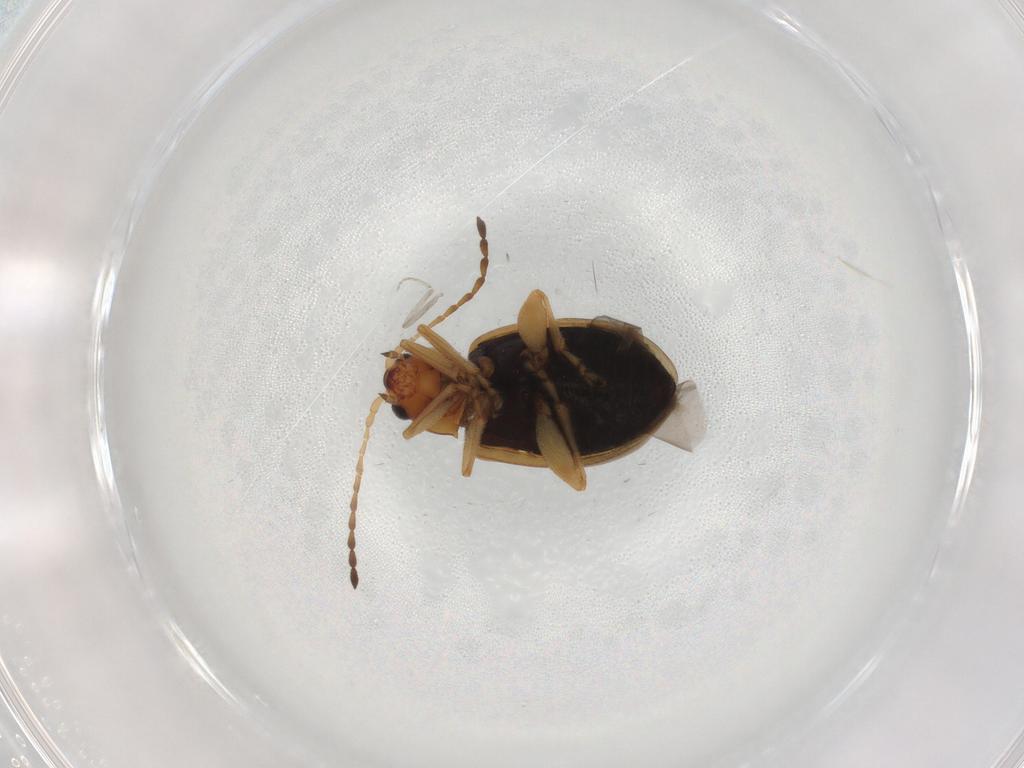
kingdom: Animalia
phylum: Arthropoda
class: Insecta
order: Coleoptera
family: Chrysomelidae
